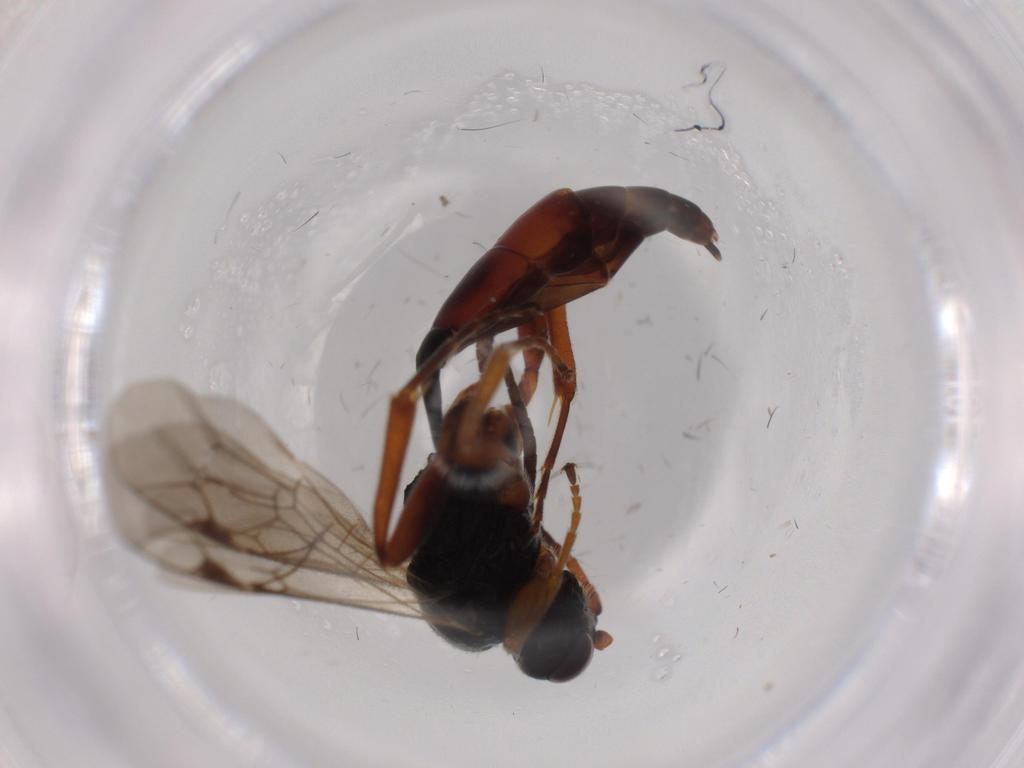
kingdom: Animalia
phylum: Arthropoda
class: Insecta
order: Hymenoptera
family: Ichneumonidae
